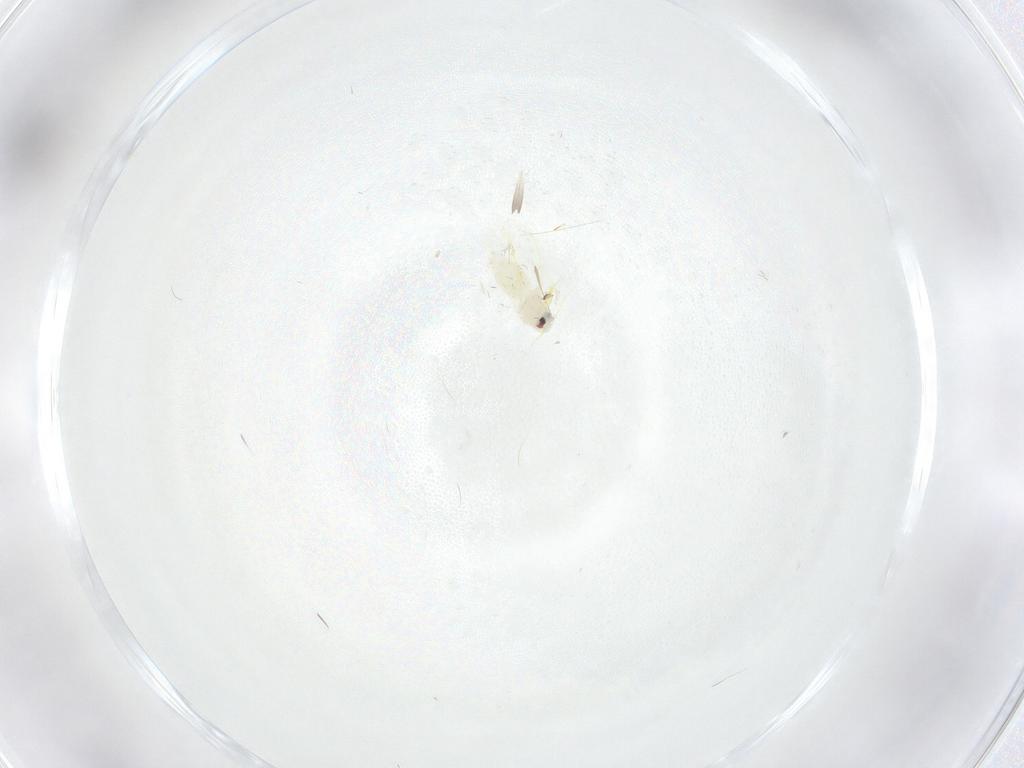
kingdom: Animalia
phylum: Arthropoda
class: Insecta
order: Hemiptera
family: Aleyrodidae
